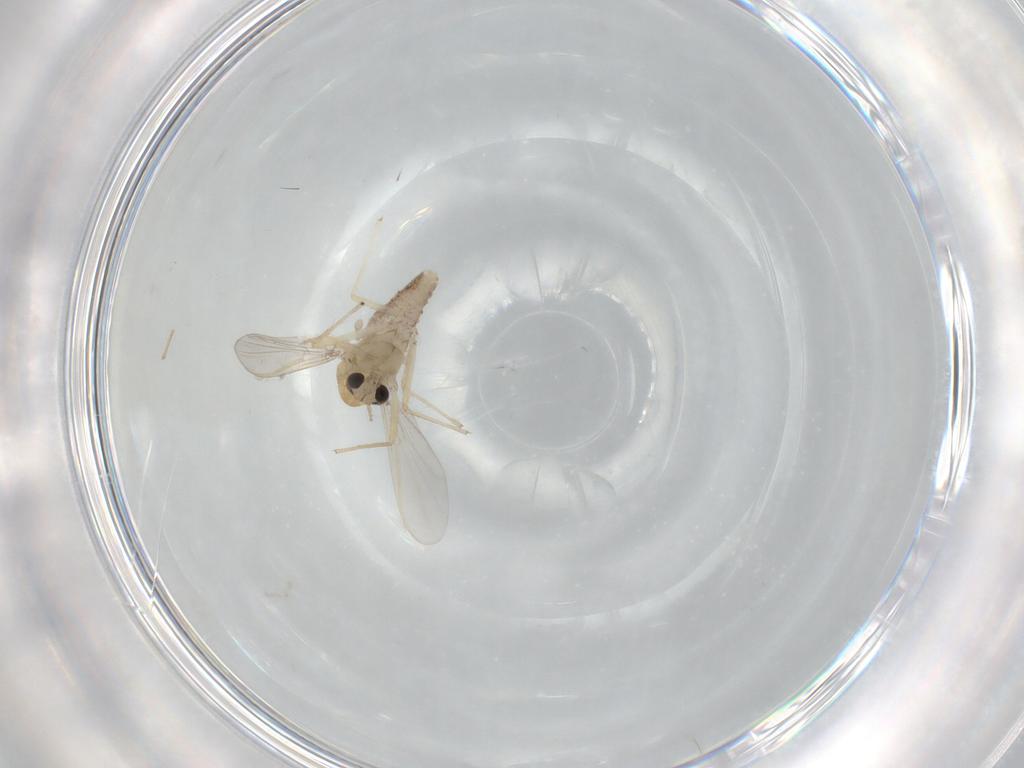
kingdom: Animalia
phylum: Arthropoda
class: Insecta
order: Diptera
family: Chironomidae
